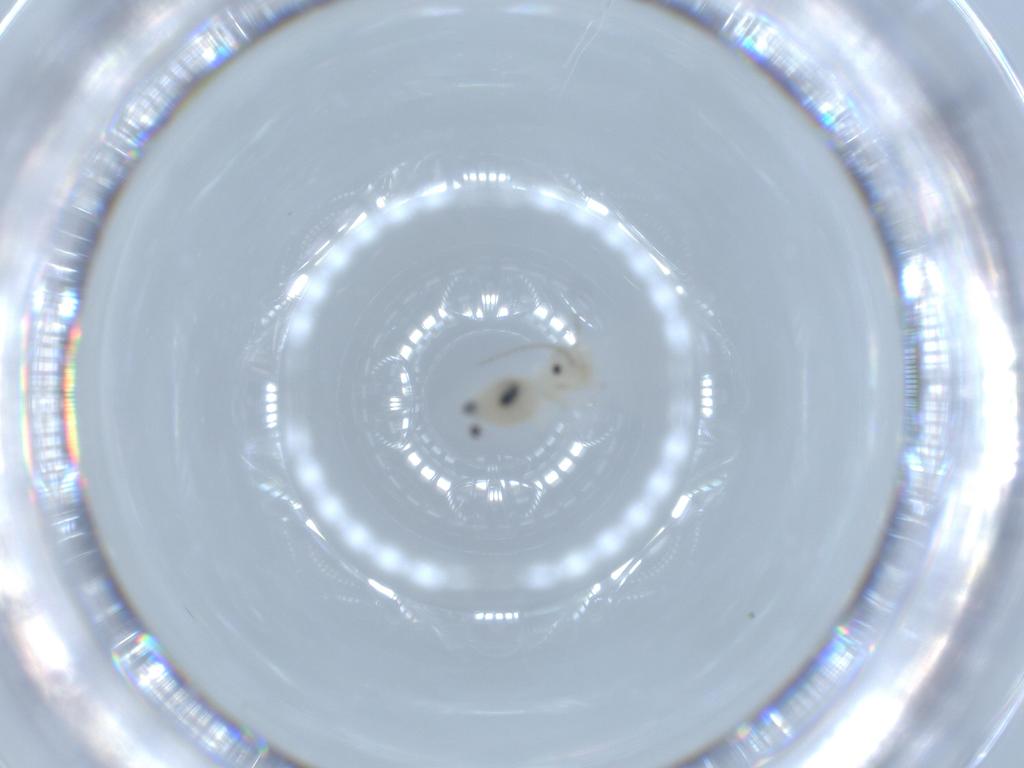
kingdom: Animalia
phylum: Arthropoda
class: Insecta
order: Psocodea
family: Caeciliusidae
